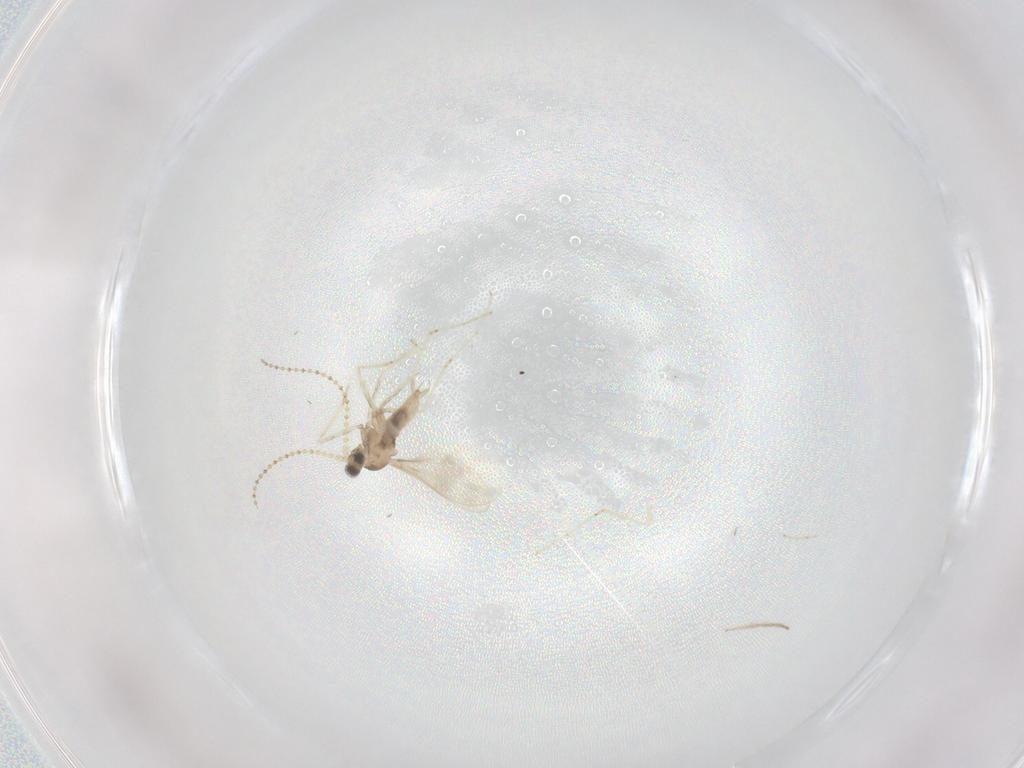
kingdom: Animalia
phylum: Arthropoda
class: Insecta
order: Diptera
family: Cecidomyiidae
